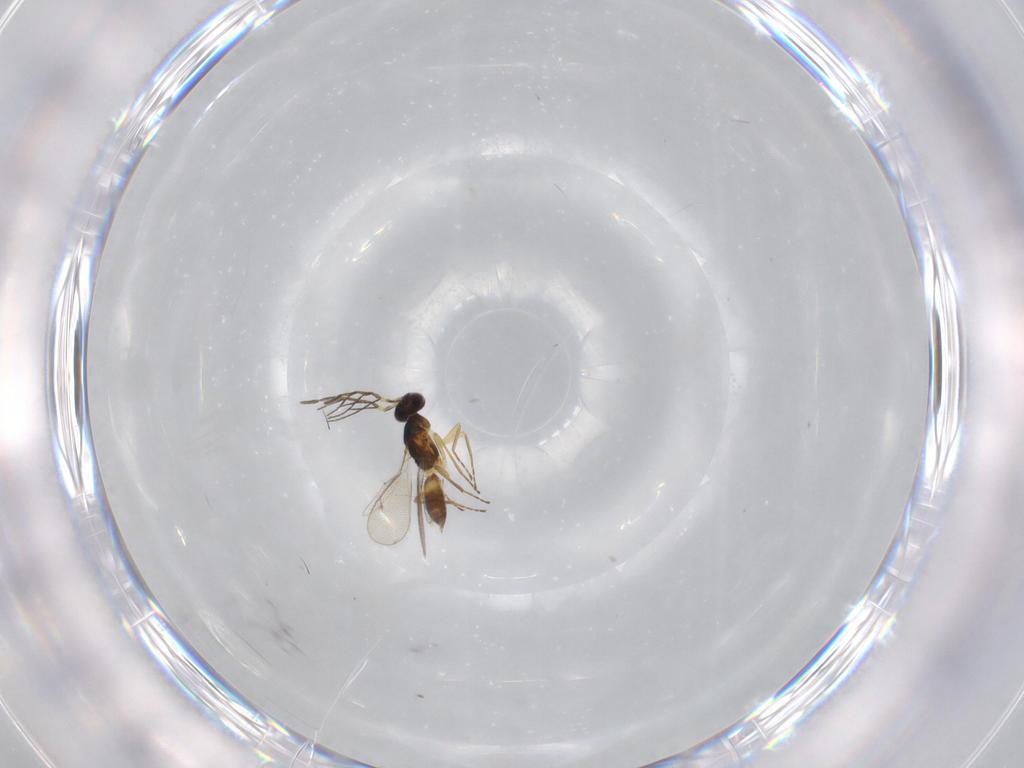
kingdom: Animalia
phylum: Arthropoda
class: Insecta
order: Hymenoptera
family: Eulophidae
